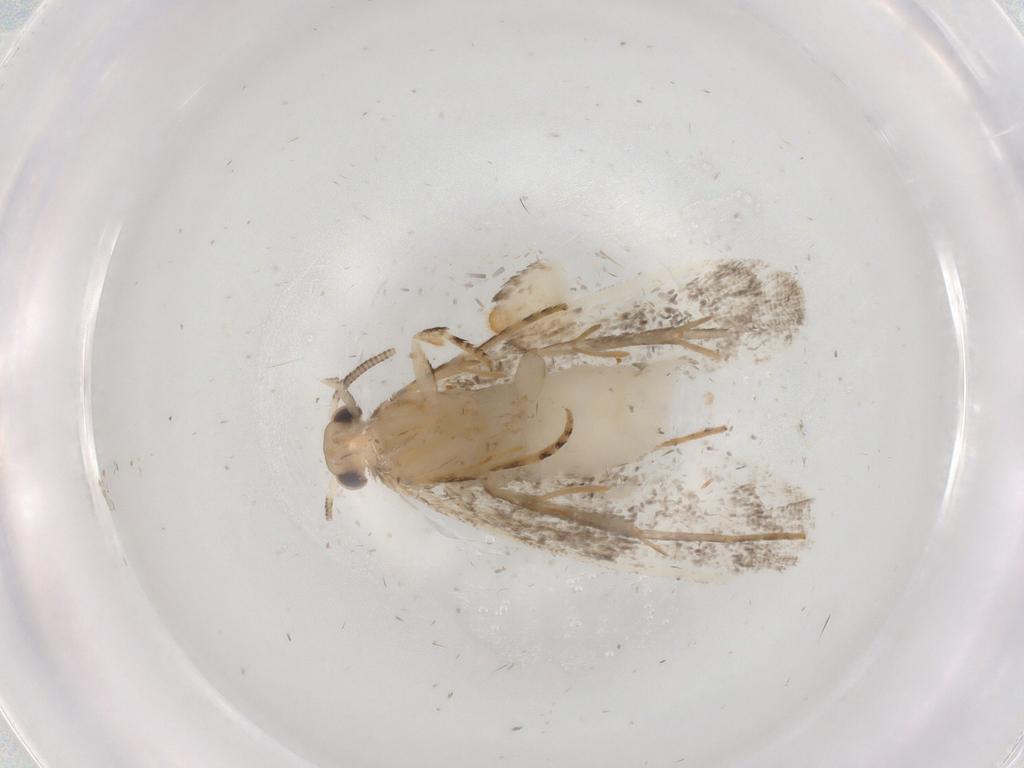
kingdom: Animalia
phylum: Arthropoda
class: Insecta
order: Lepidoptera
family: Dryadaulidae
